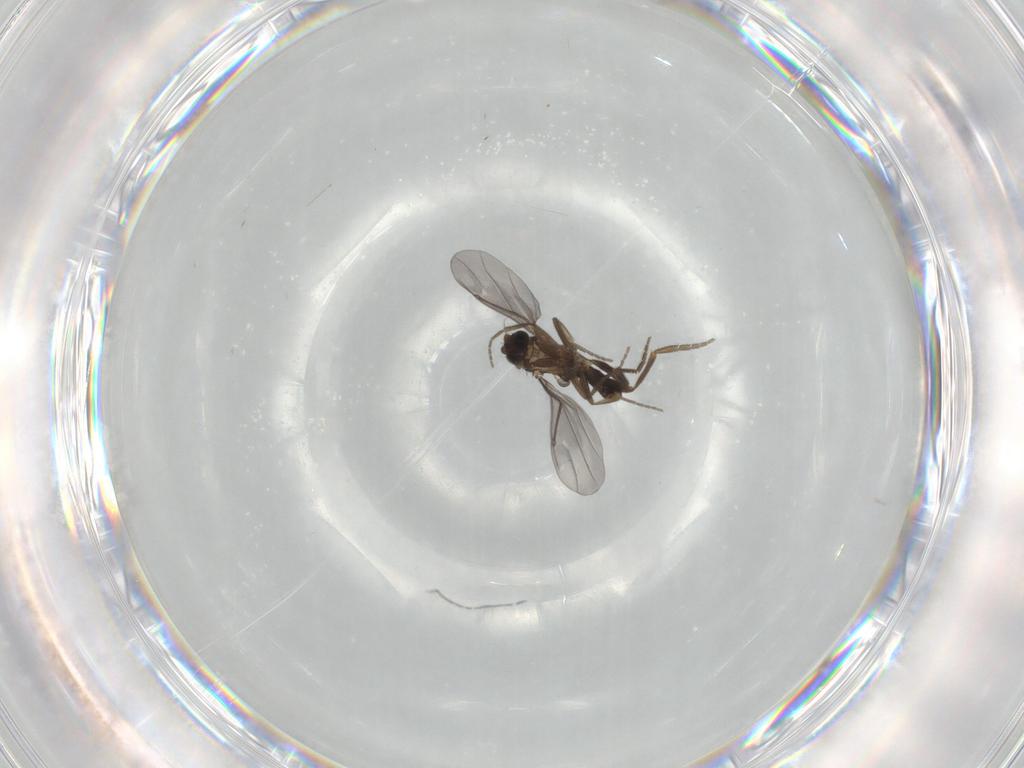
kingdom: Animalia
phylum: Arthropoda
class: Insecta
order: Diptera
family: Phoridae
